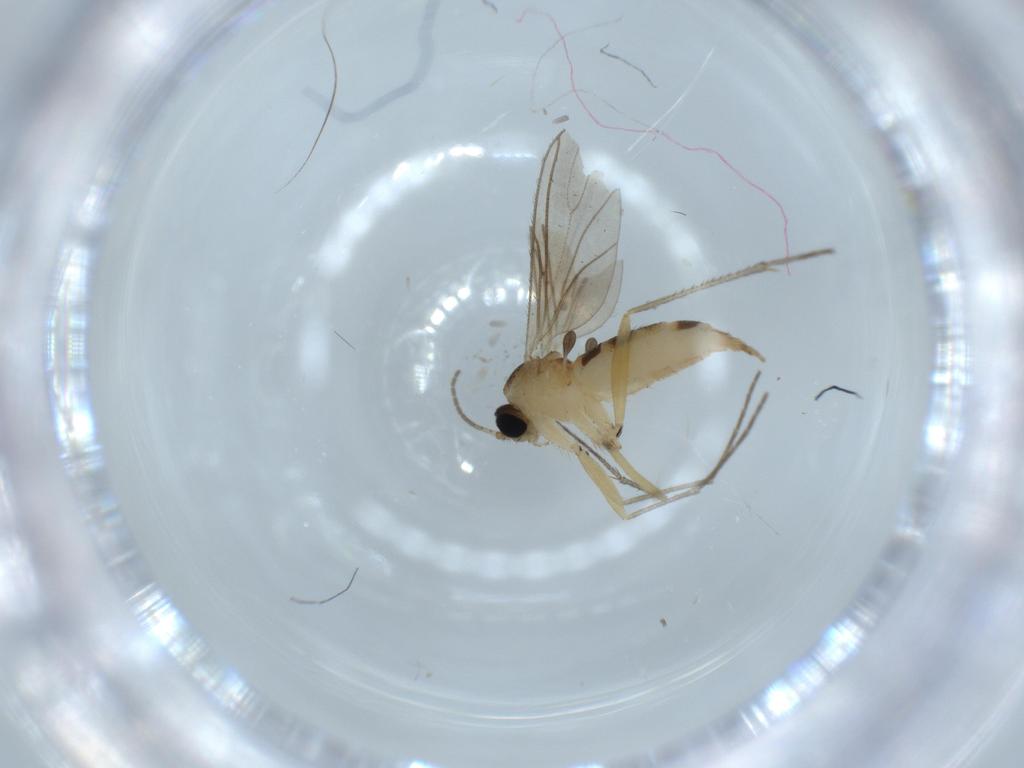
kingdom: Animalia
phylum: Arthropoda
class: Insecta
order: Diptera
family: Sciaridae
